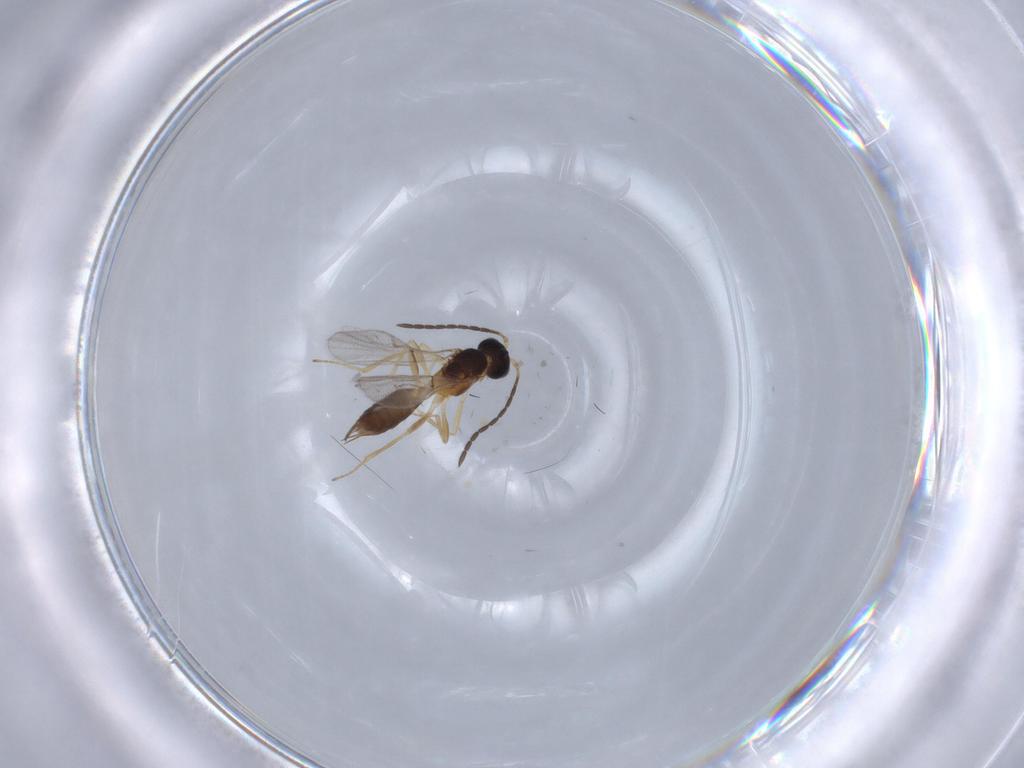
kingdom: Animalia
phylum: Arthropoda
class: Insecta
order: Hymenoptera
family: Braconidae
